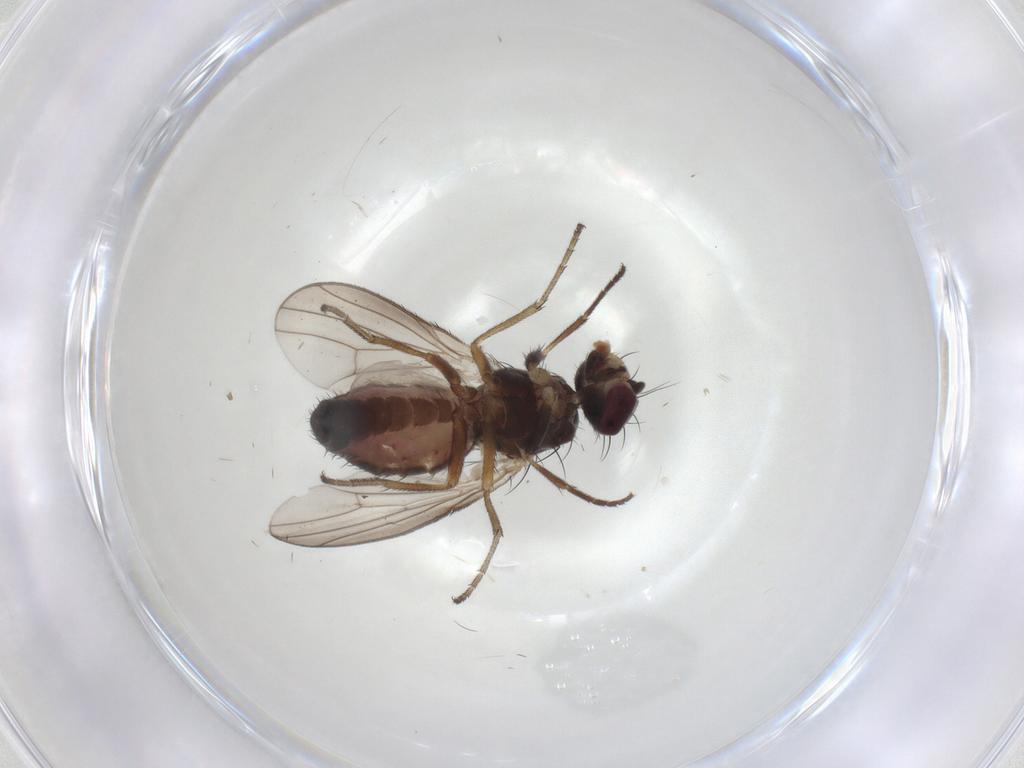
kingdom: Animalia
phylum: Arthropoda
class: Insecta
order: Diptera
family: Heleomyzidae
